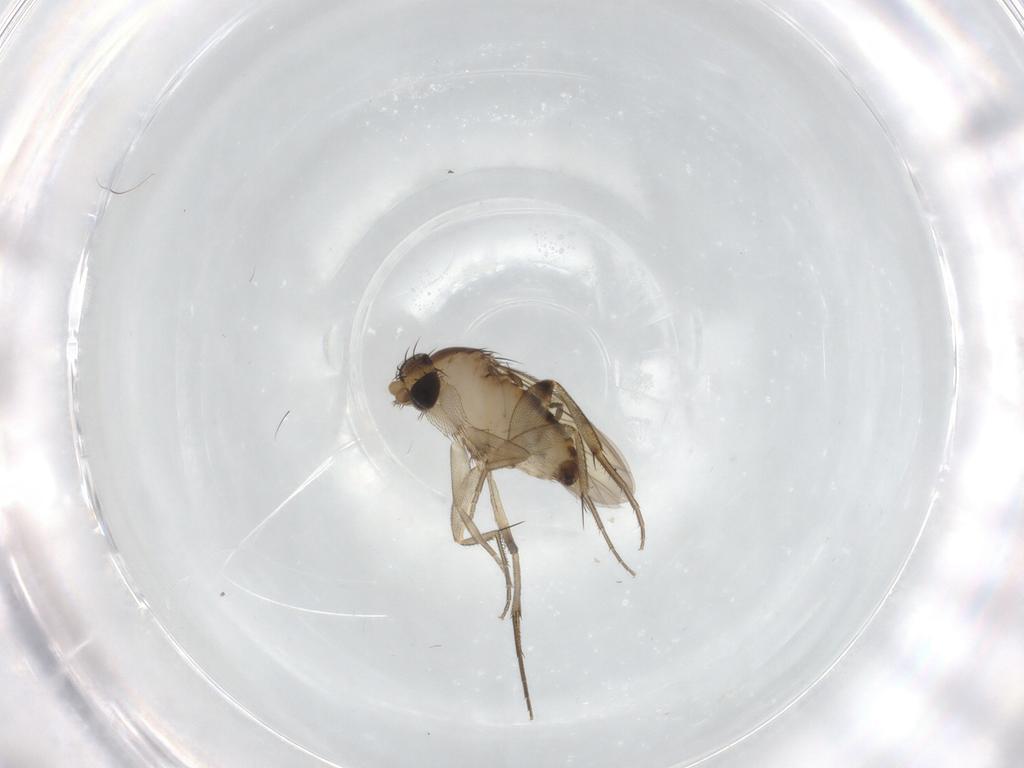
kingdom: Animalia
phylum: Arthropoda
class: Insecta
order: Diptera
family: Phoridae
